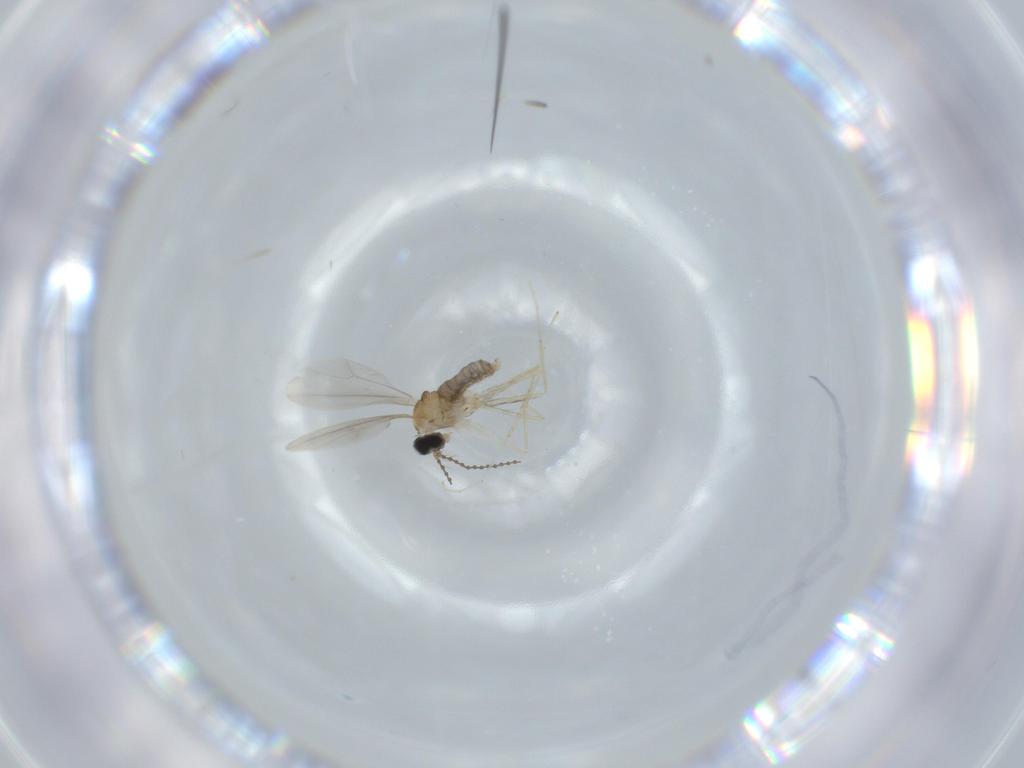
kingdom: Animalia
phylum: Arthropoda
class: Insecta
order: Diptera
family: Cecidomyiidae
